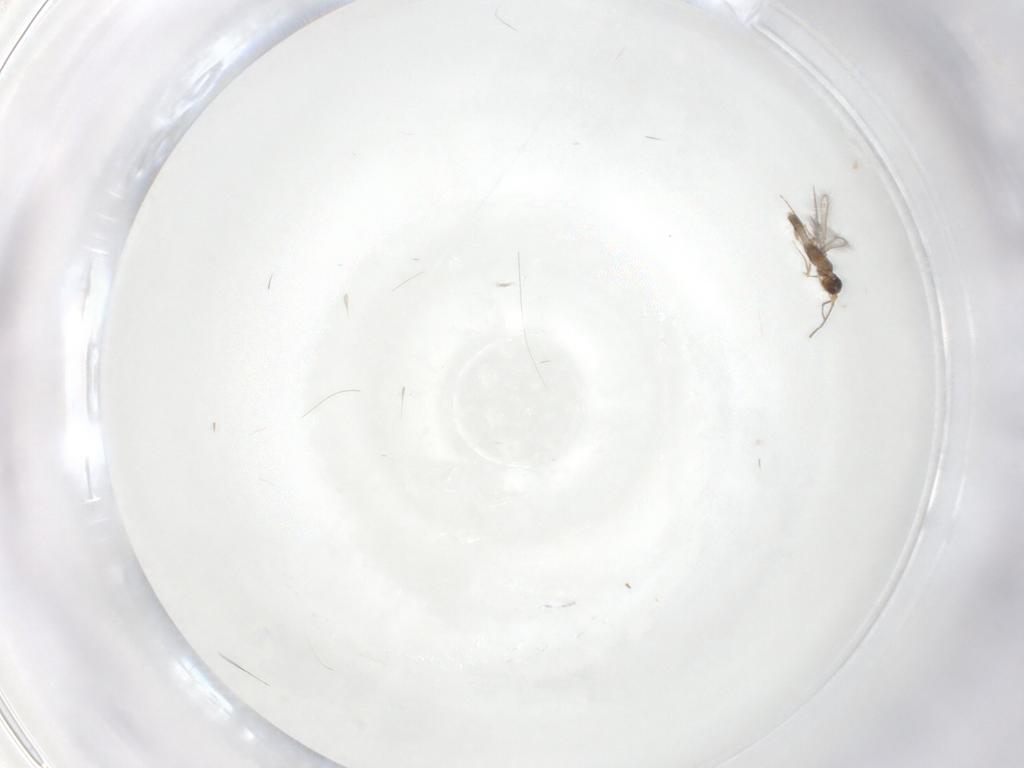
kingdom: Animalia
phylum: Arthropoda
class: Insecta
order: Hymenoptera
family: Mymaridae
